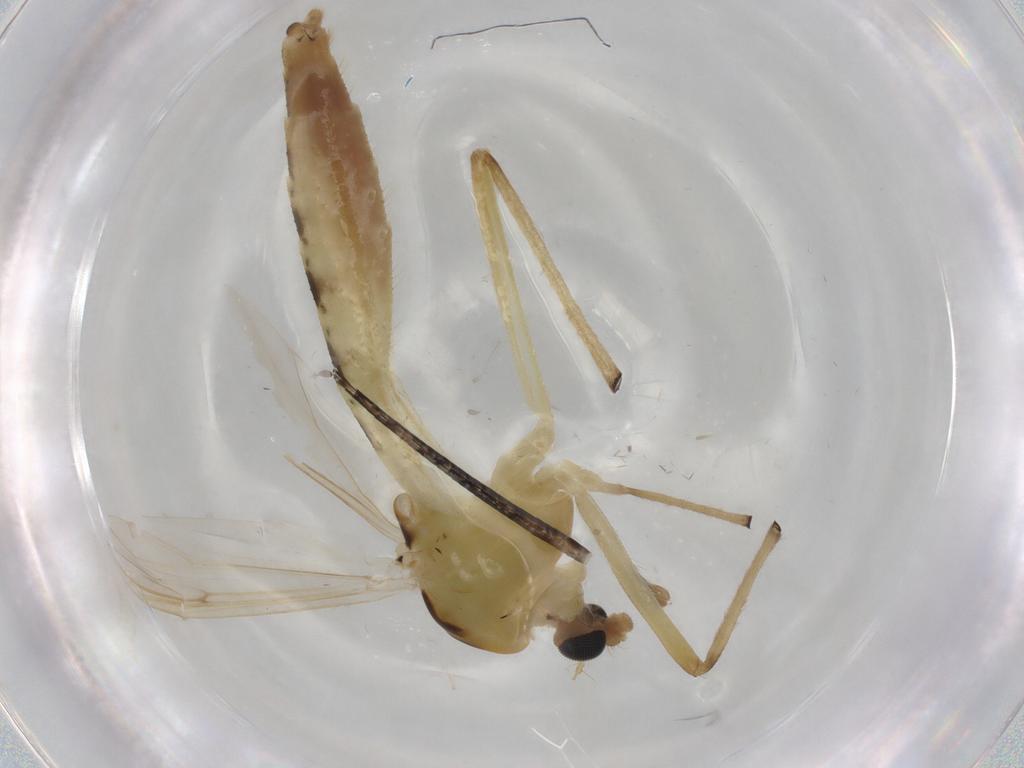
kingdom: Animalia
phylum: Arthropoda
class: Insecta
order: Diptera
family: Chironomidae
